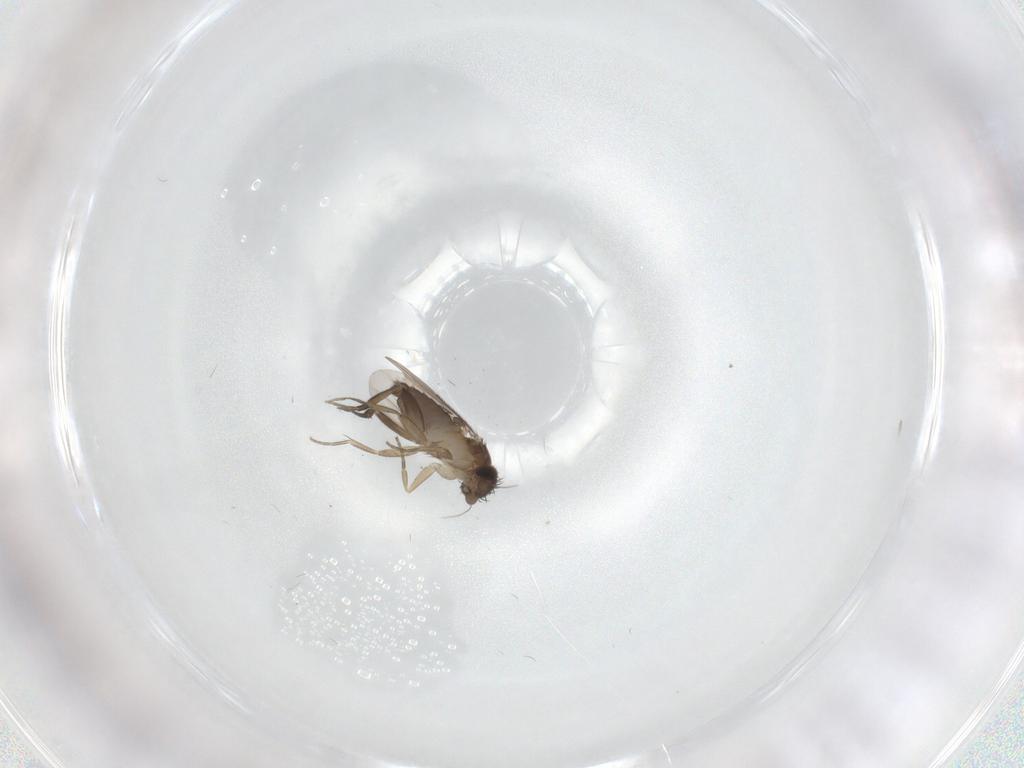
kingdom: Animalia
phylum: Arthropoda
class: Insecta
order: Diptera
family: Phoridae
